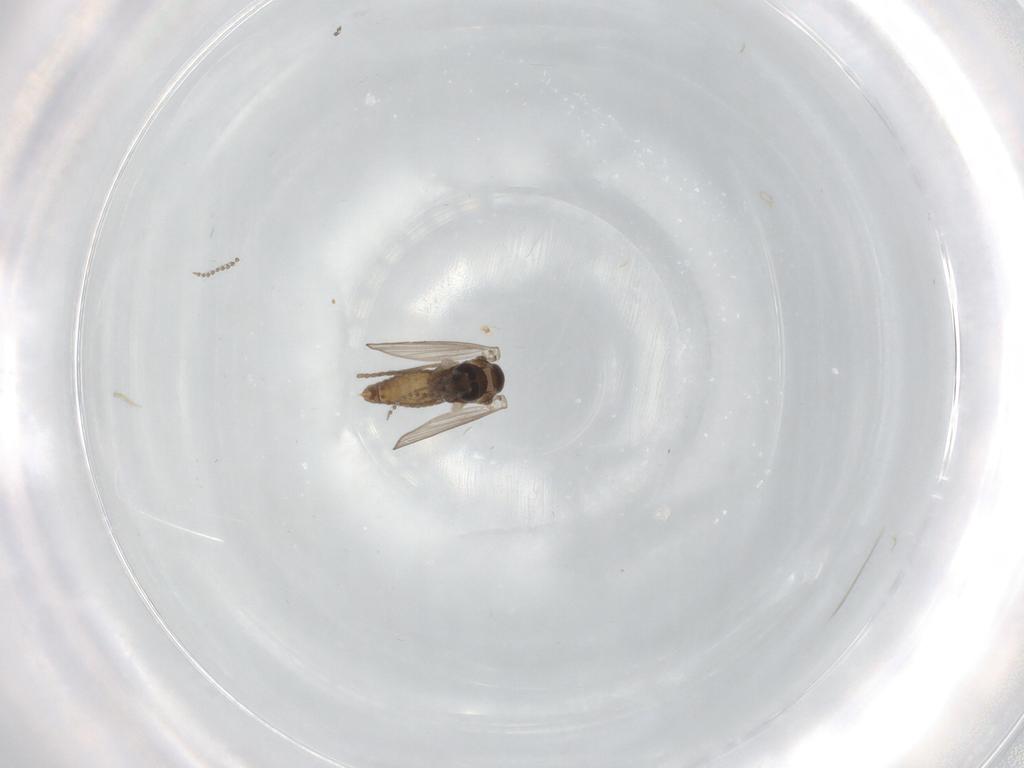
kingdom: Animalia
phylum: Arthropoda
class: Insecta
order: Diptera
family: Psychodidae
